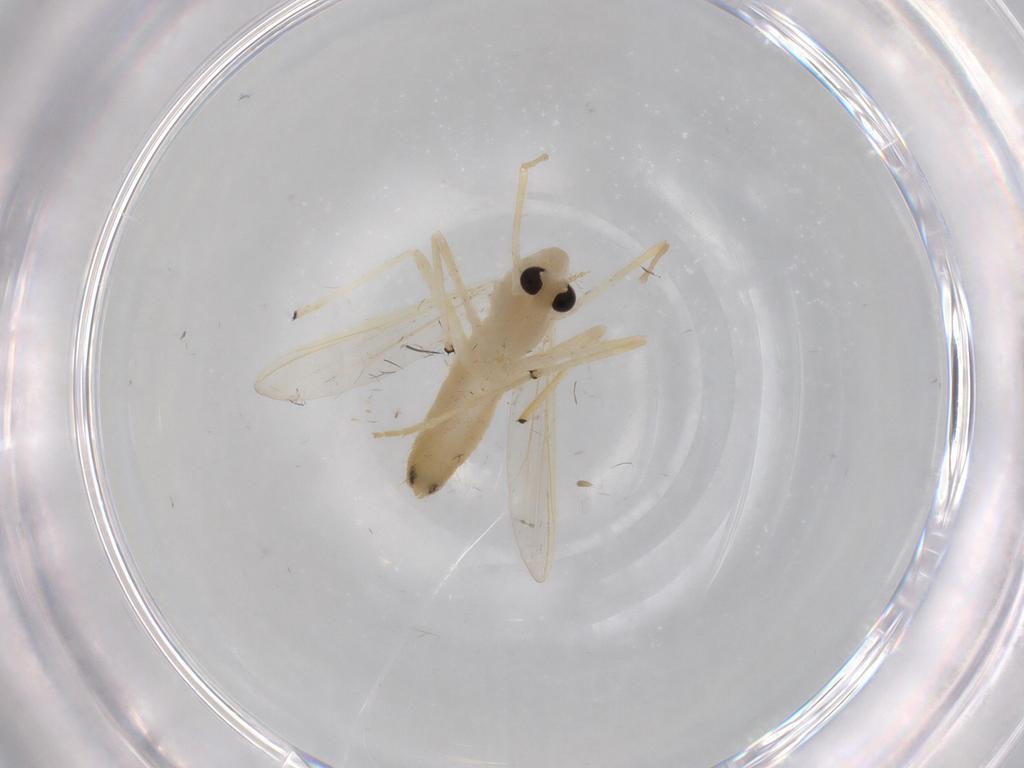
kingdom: Animalia
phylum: Arthropoda
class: Insecta
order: Diptera
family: Chironomidae
